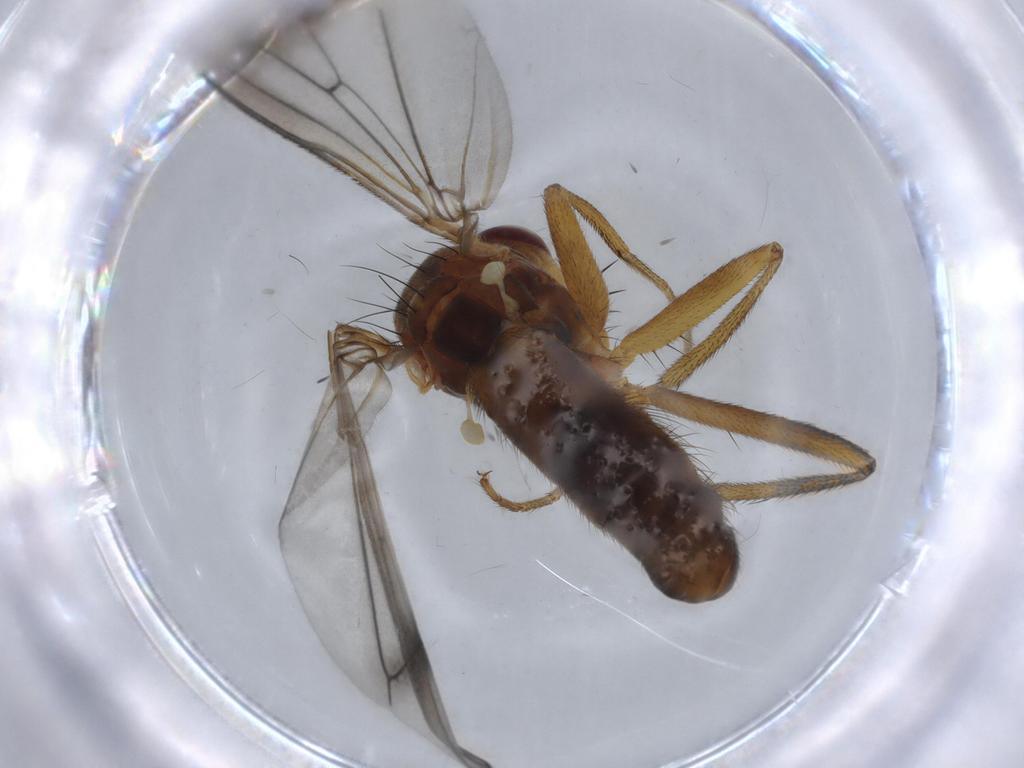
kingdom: Animalia
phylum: Arthropoda
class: Insecta
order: Diptera
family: Scathophagidae
